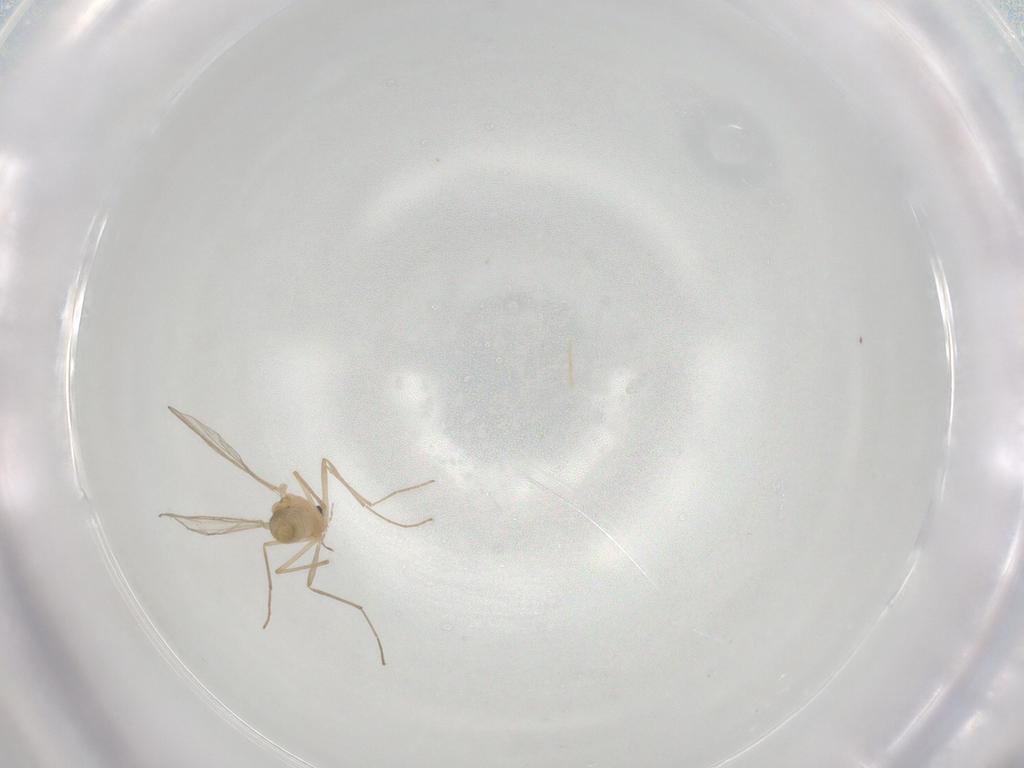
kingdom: Animalia
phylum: Arthropoda
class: Insecta
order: Diptera
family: Chironomidae
